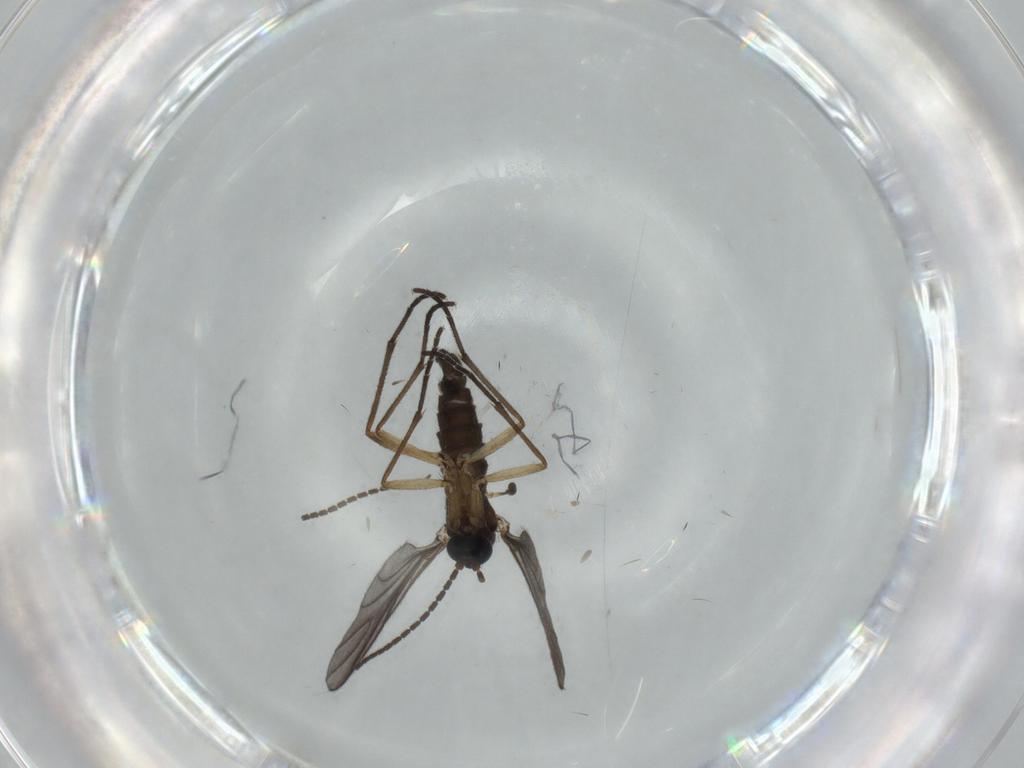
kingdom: Animalia
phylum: Arthropoda
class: Insecta
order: Diptera
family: Sciaridae
